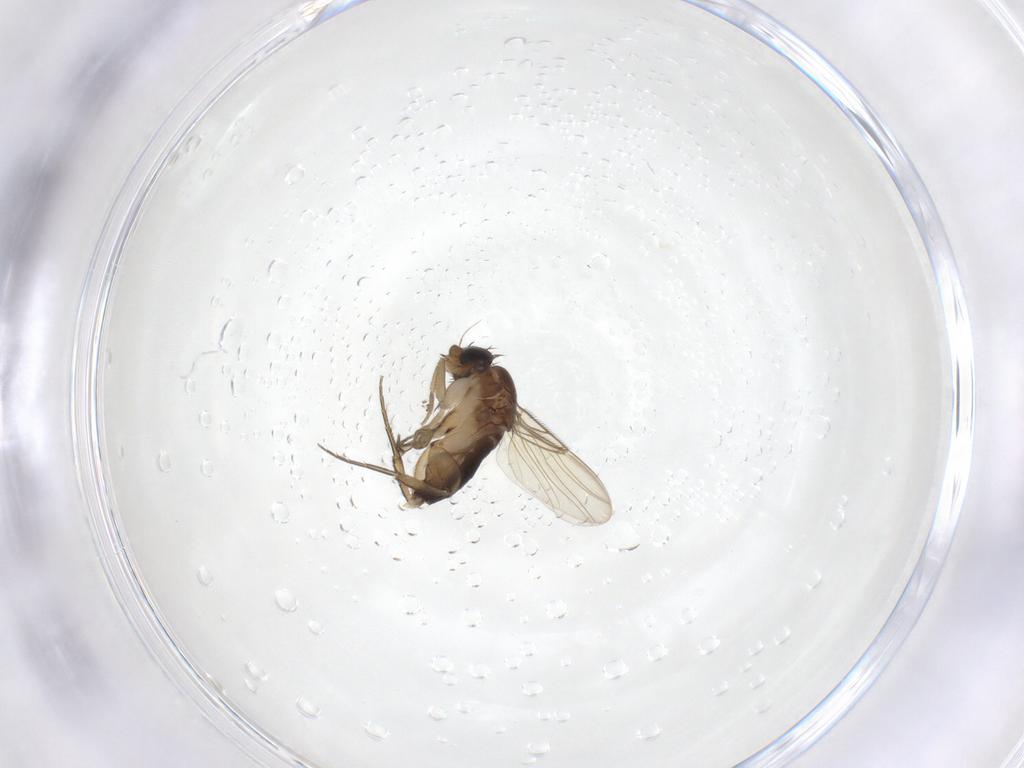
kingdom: Animalia
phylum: Arthropoda
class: Insecta
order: Diptera
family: Phoridae
